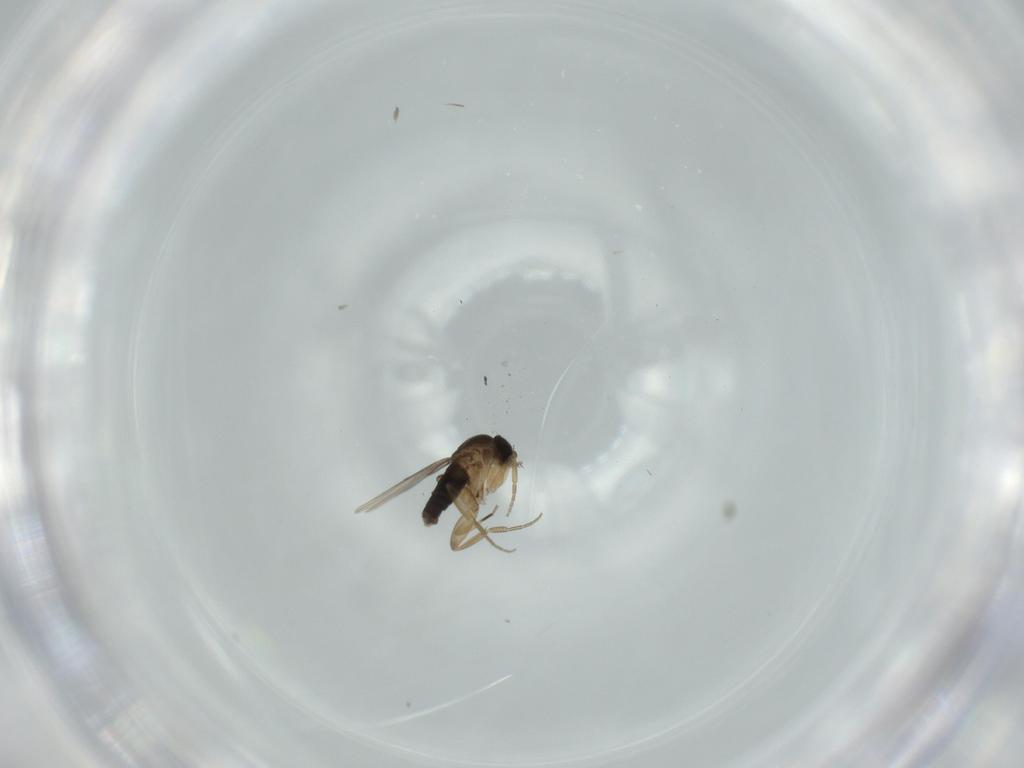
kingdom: Animalia
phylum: Arthropoda
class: Insecta
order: Diptera
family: Phoridae
